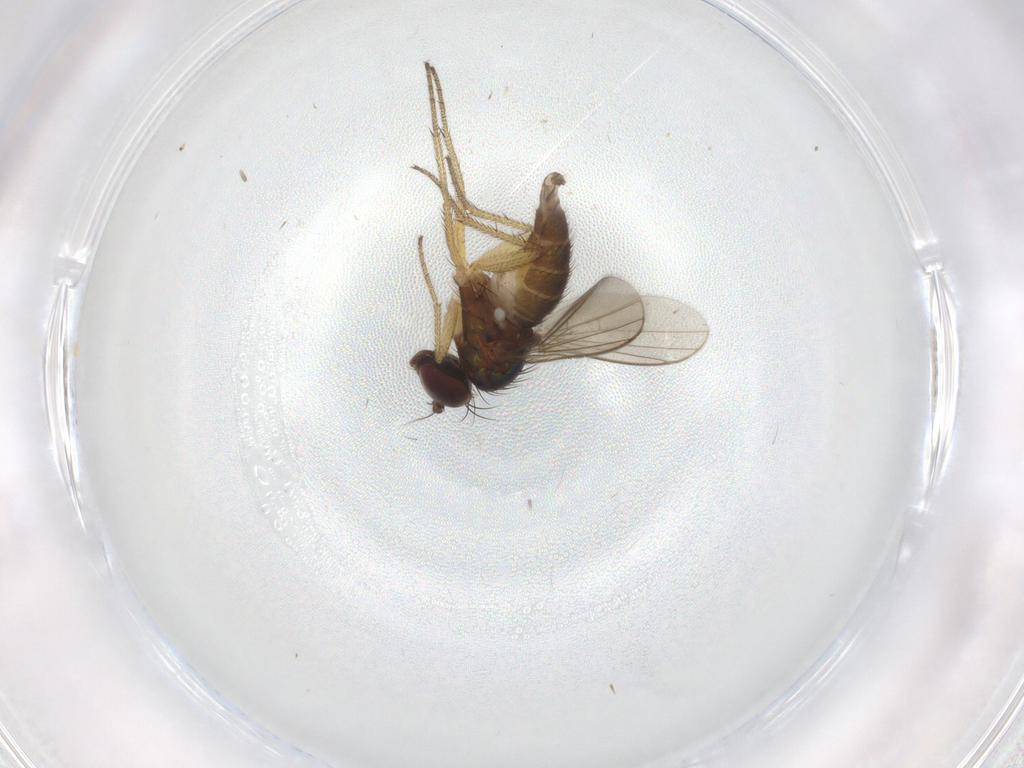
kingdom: Animalia
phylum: Arthropoda
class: Insecta
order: Diptera
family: Dolichopodidae
